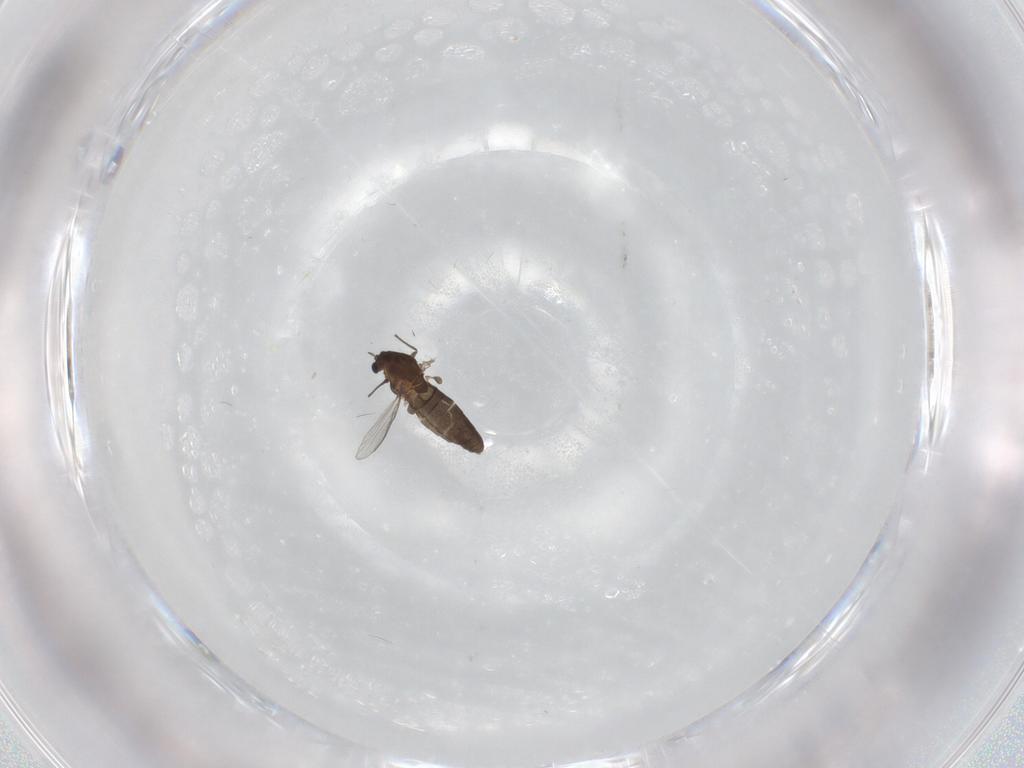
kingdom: Animalia
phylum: Arthropoda
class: Insecta
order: Diptera
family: Chironomidae
